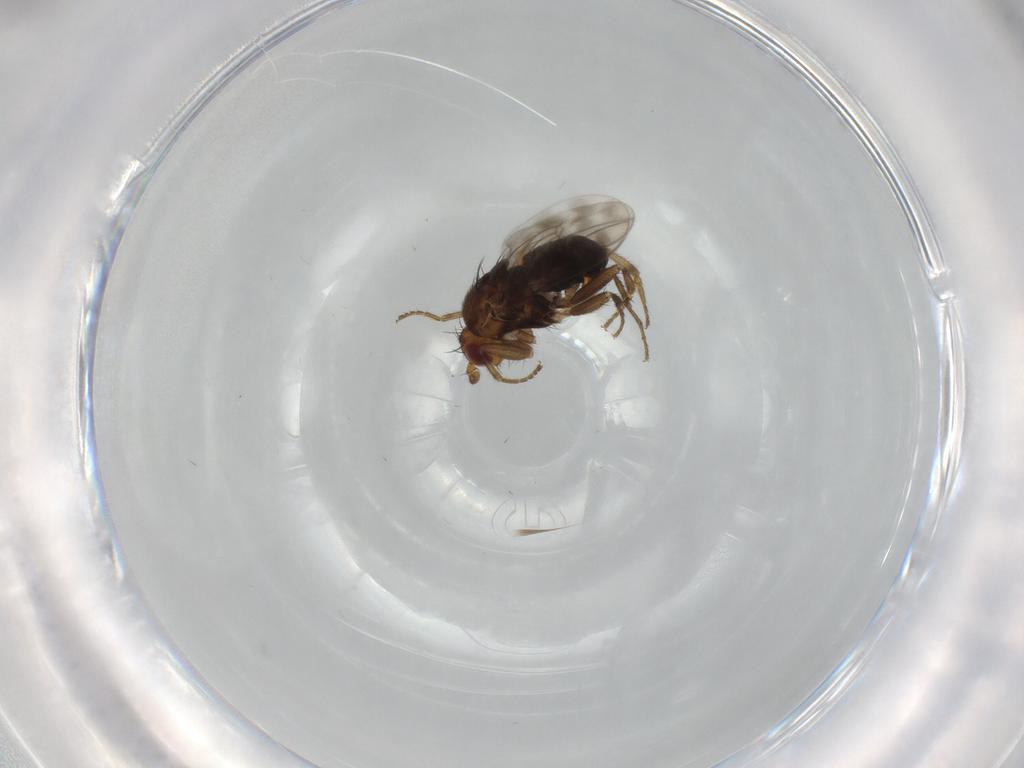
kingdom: Animalia
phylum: Arthropoda
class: Insecta
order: Diptera
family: Sphaeroceridae
